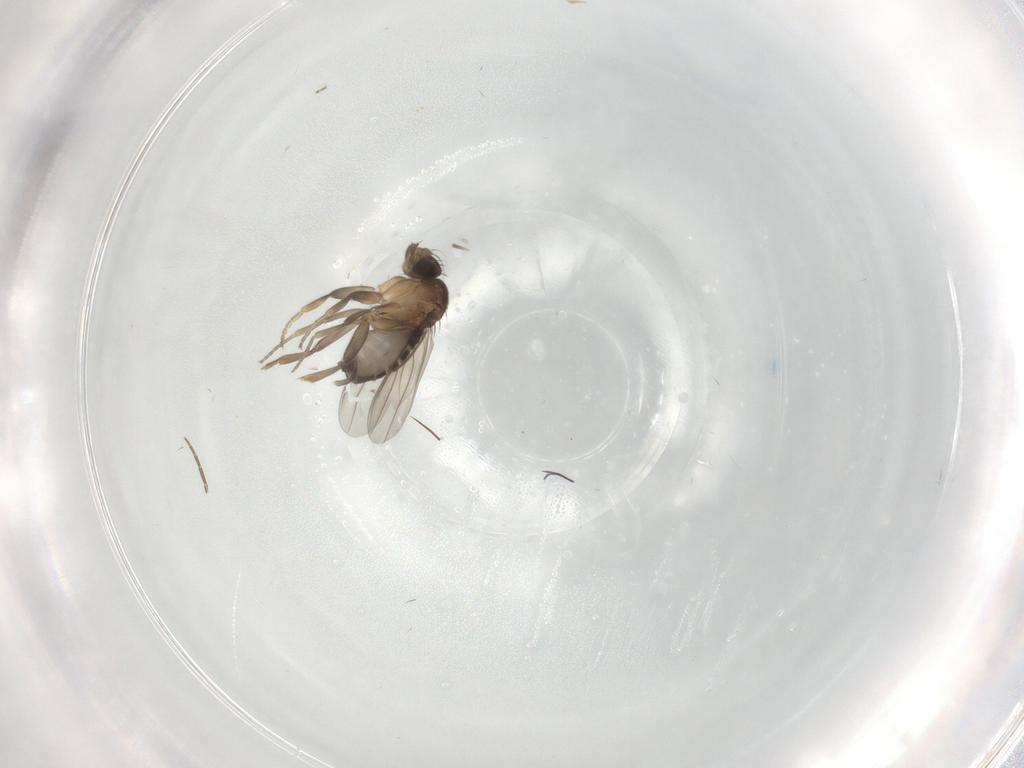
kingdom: Animalia
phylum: Arthropoda
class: Insecta
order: Diptera
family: Phoridae
